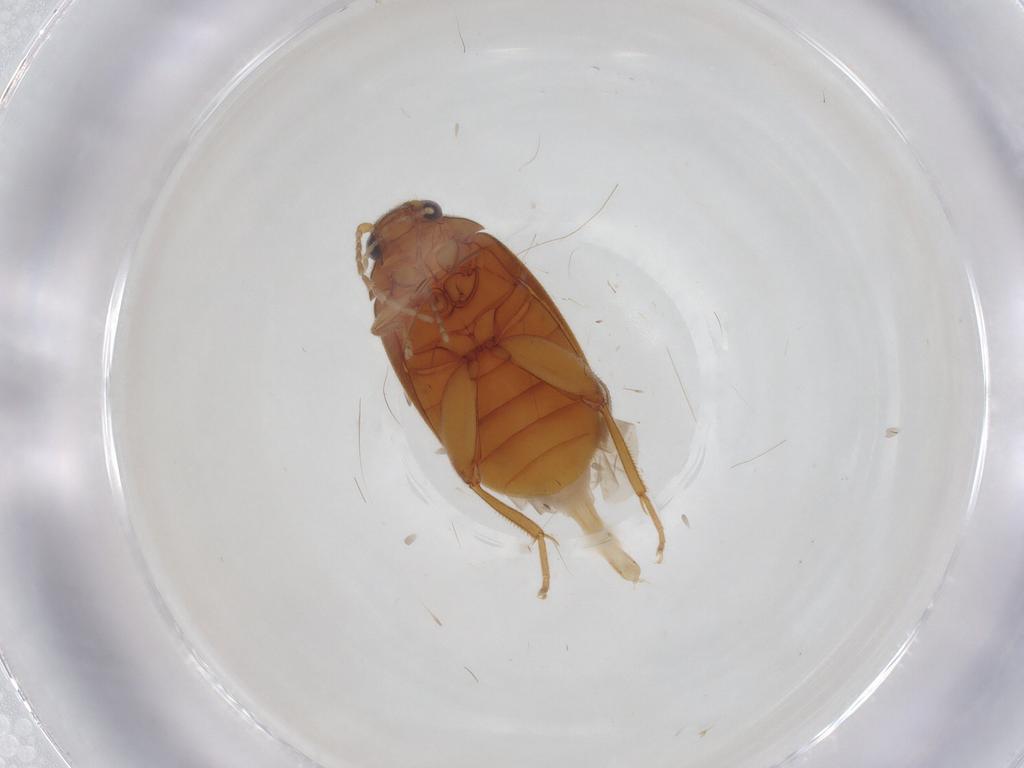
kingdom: Animalia
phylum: Arthropoda
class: Insecta
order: Coleoptera
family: Scirtidae
